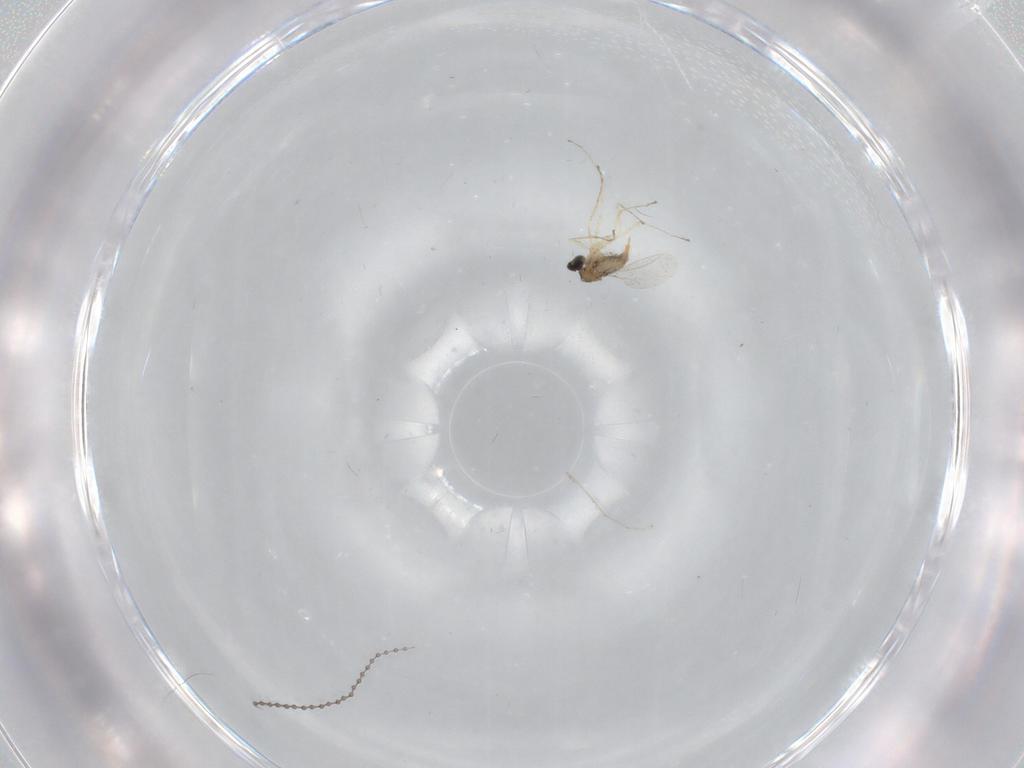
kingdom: Animalia
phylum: Arthropoda
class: Insecta
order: Diptera
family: Cecidomyiidae
